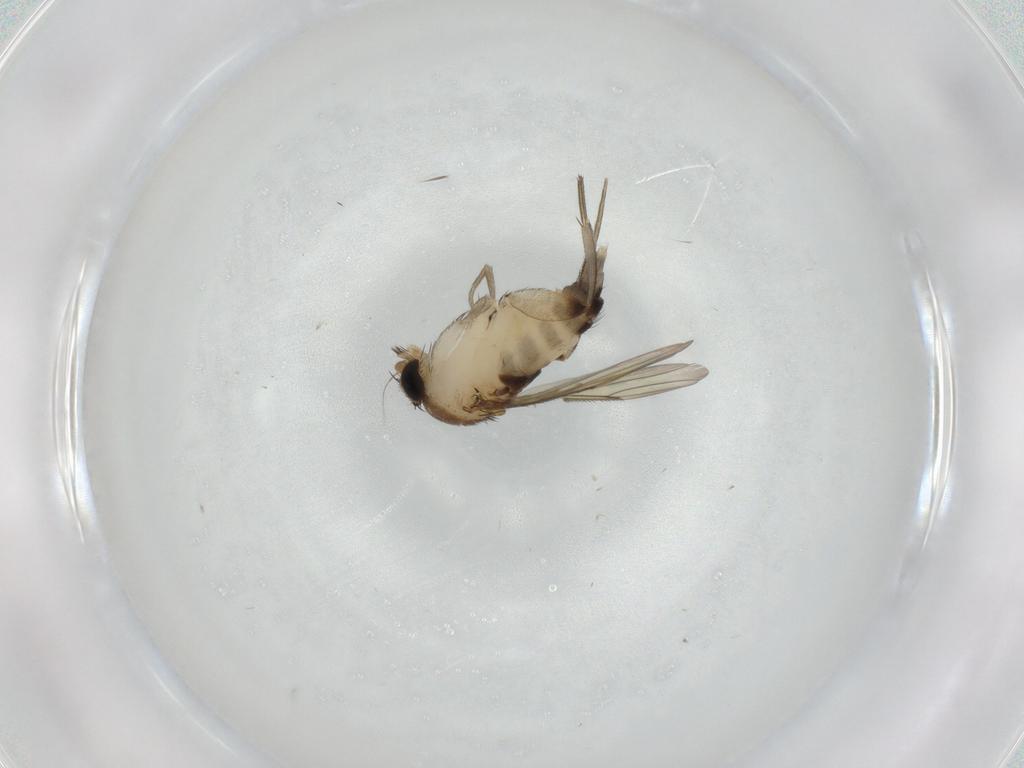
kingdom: Animalia
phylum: Arthropoda
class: Insecta
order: Diptera
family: Phoridae
